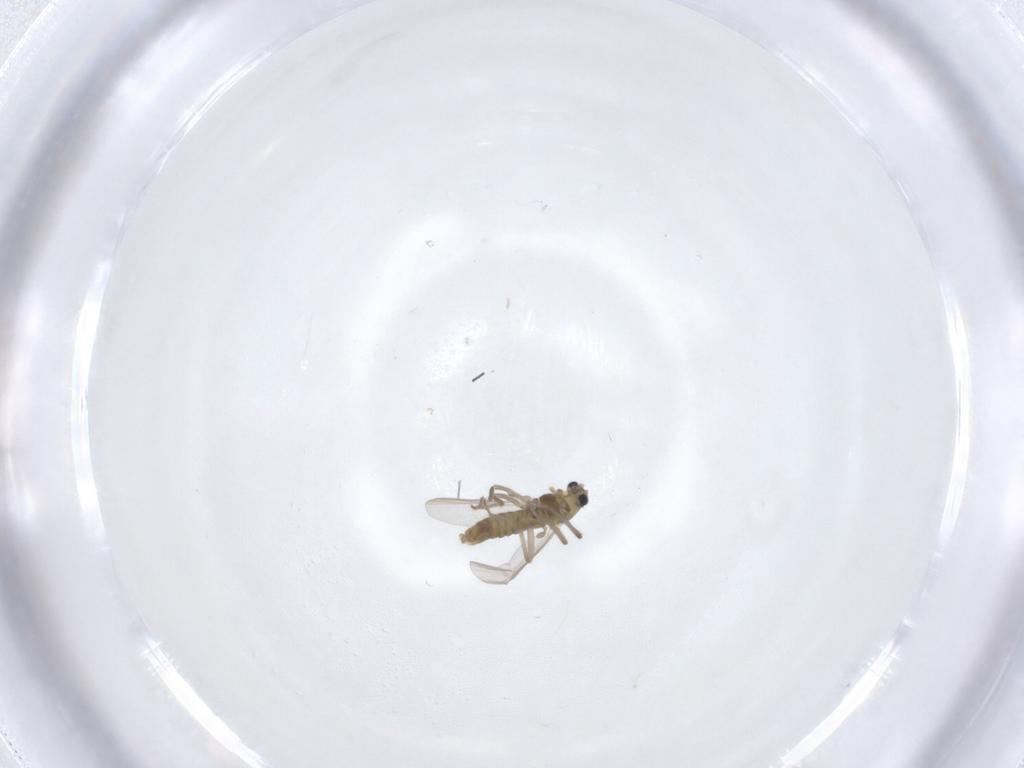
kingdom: Animalia
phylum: Arthropoda
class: Insecta
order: Diptera
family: Chironomidae
